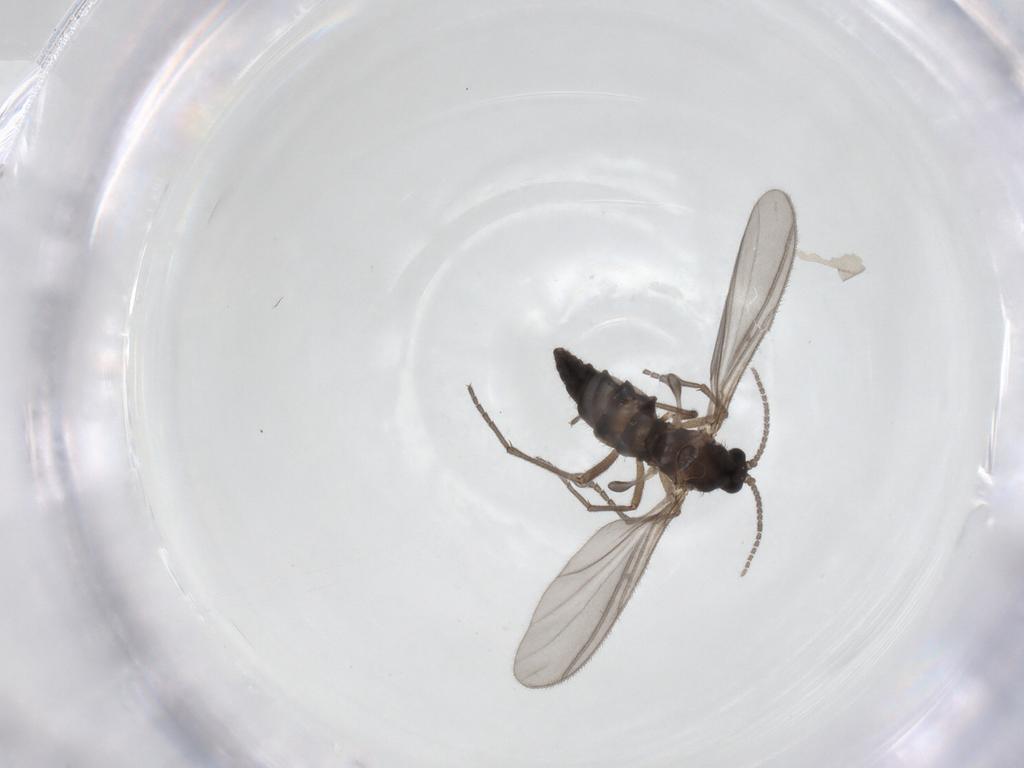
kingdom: Animalia
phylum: Arthropoda
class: Insecta
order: Diptera
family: Sciaridae
